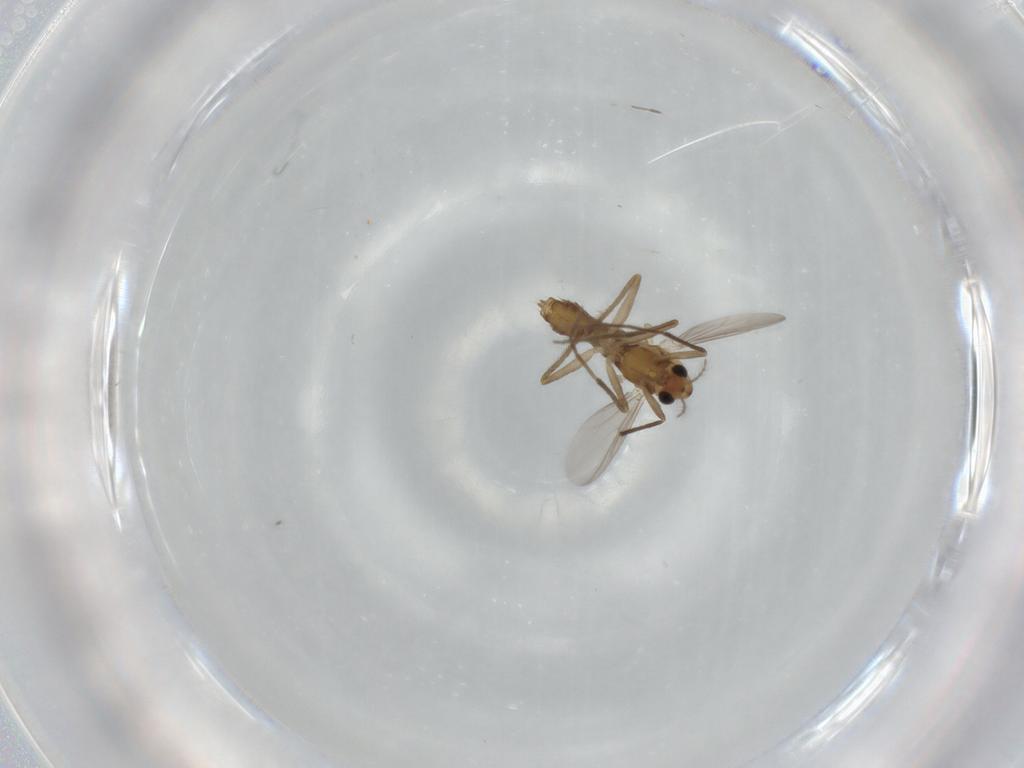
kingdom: Animalia
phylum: Arthropoda
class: Insecta
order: Diptera
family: Chironomidae
